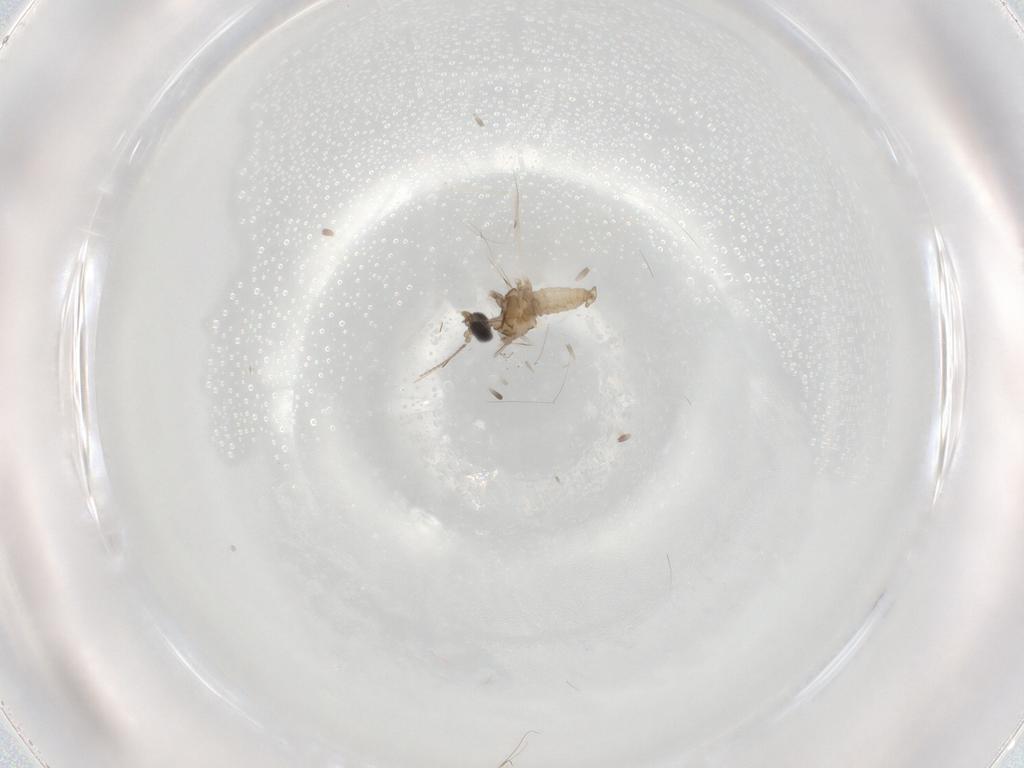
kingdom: Animalia
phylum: Arthropoda
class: Insecta
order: Diptera
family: Cecidomyiidae
